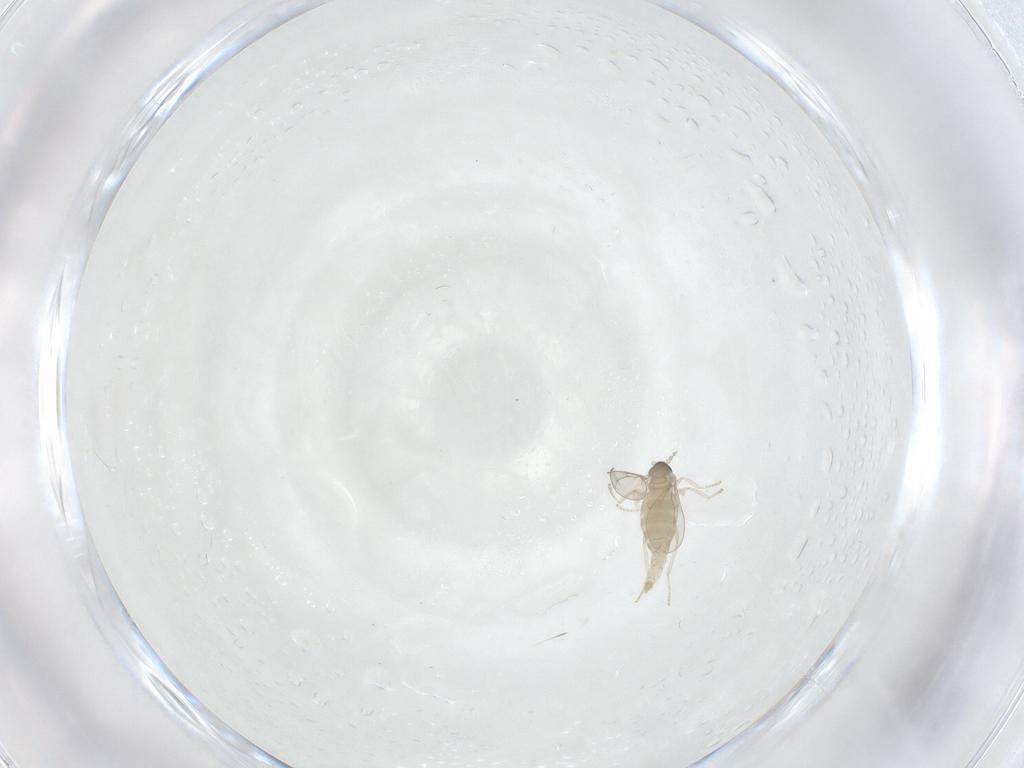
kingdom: Animalia
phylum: Arthropoda
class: Insecta
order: Diptera
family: Cecidomyiidae
